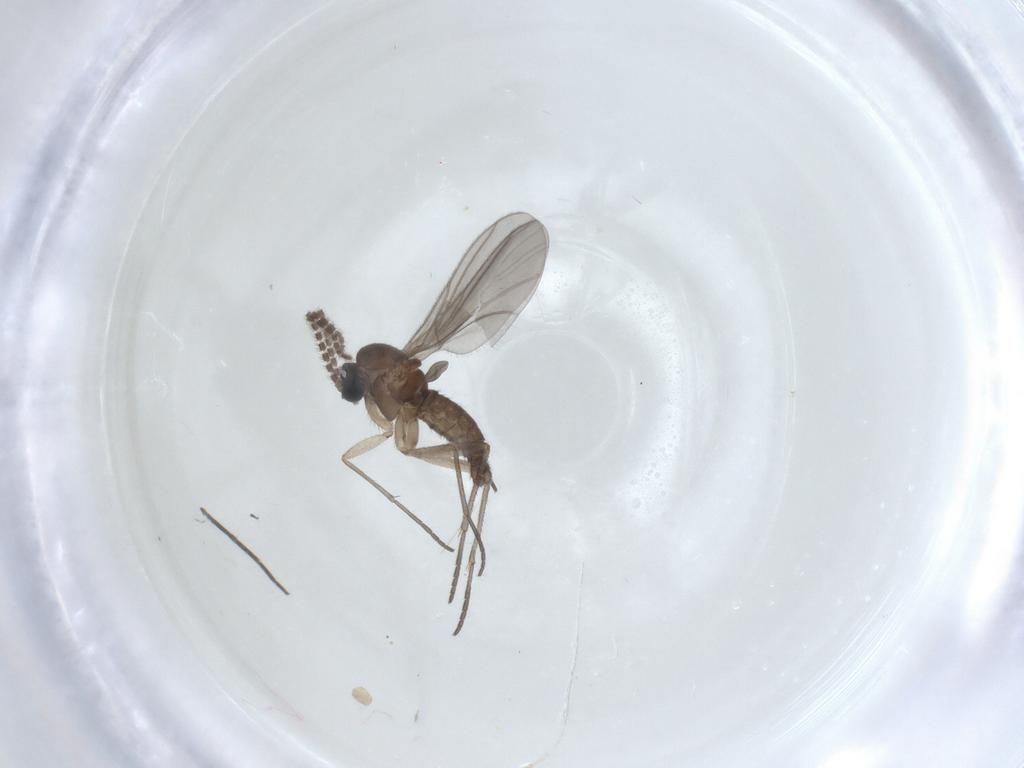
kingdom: Animalia
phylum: Arthropoda
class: Insecta
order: Diptera
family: Sciaridae
